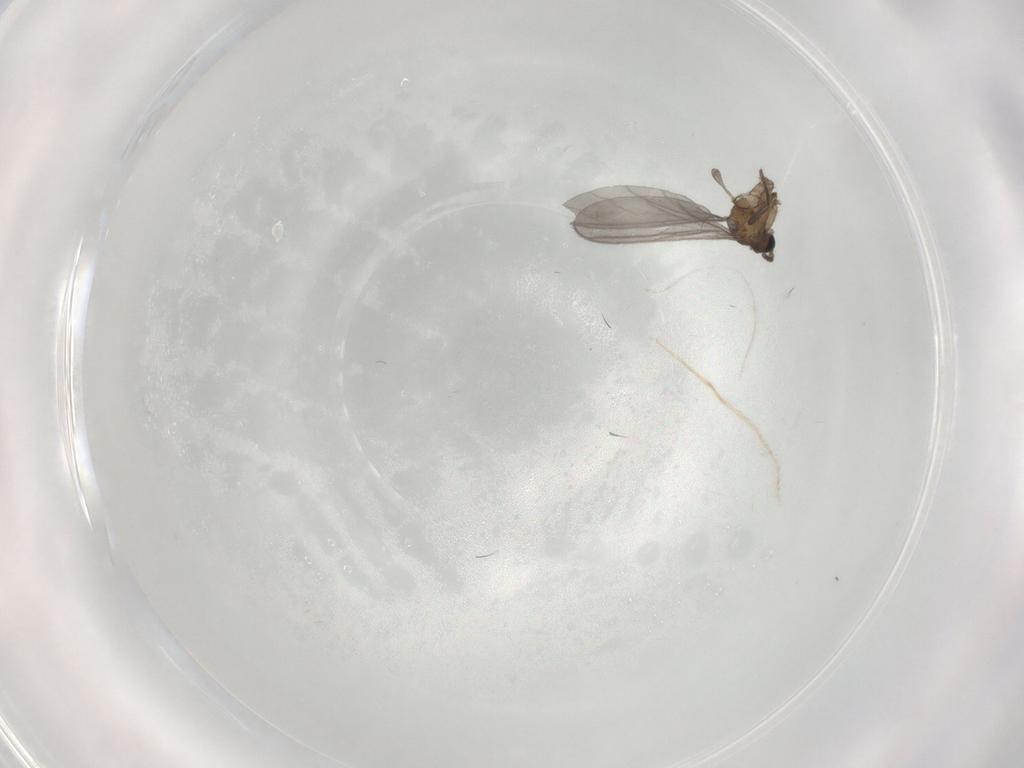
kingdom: Animalia
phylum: Arthropoda
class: Insecta
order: Diptera
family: Sciaridae
